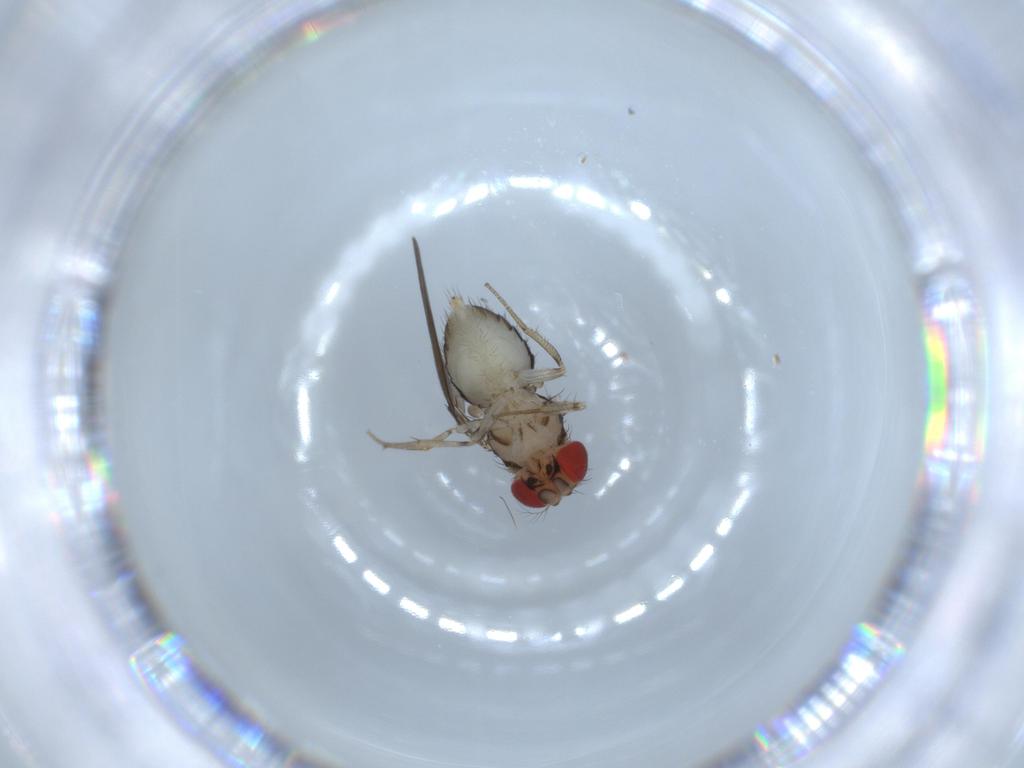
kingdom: Animalia
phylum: Arthropoda
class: Insecta
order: Diptera
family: Drosophilidae
